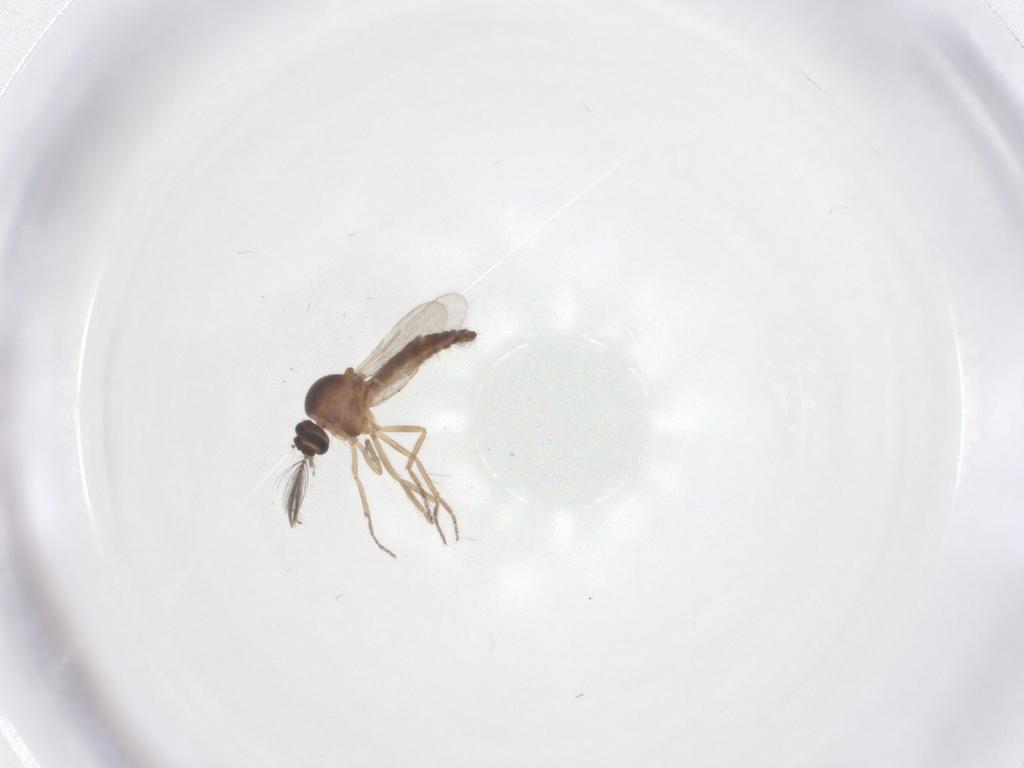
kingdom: Animalia
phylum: Arthropoda
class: Insecta
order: Diptera
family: Ceratopogonidae
